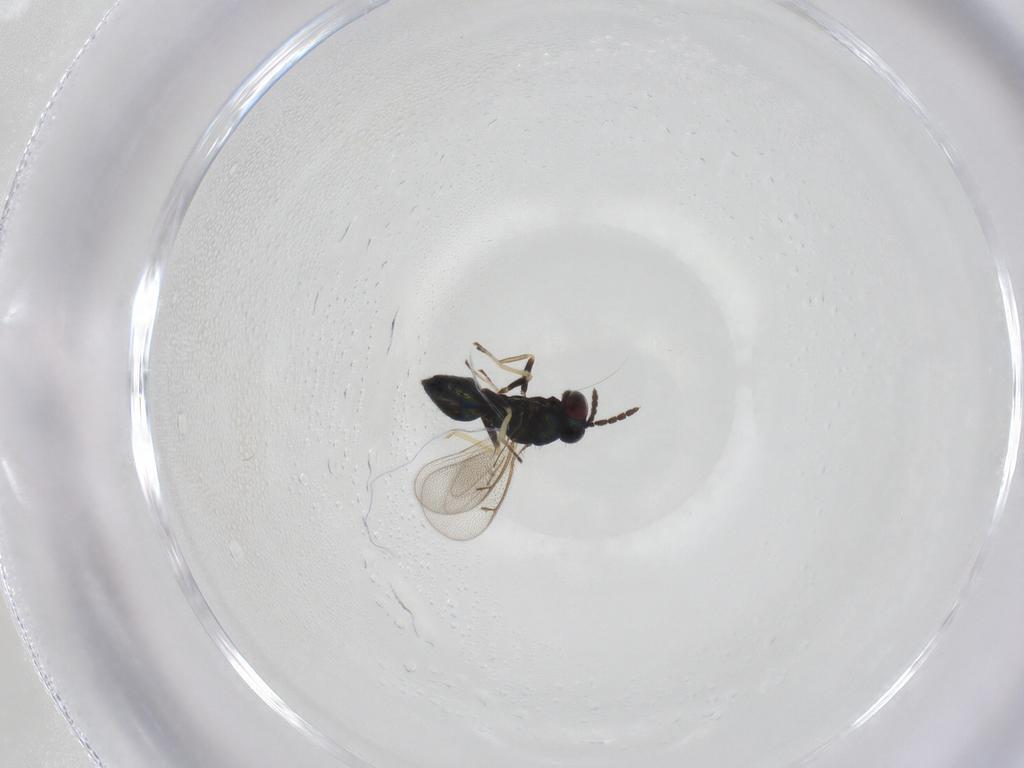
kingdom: Animalia
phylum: Arthropoda
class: Insecta
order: Hymenoptera
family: Eulophidae
